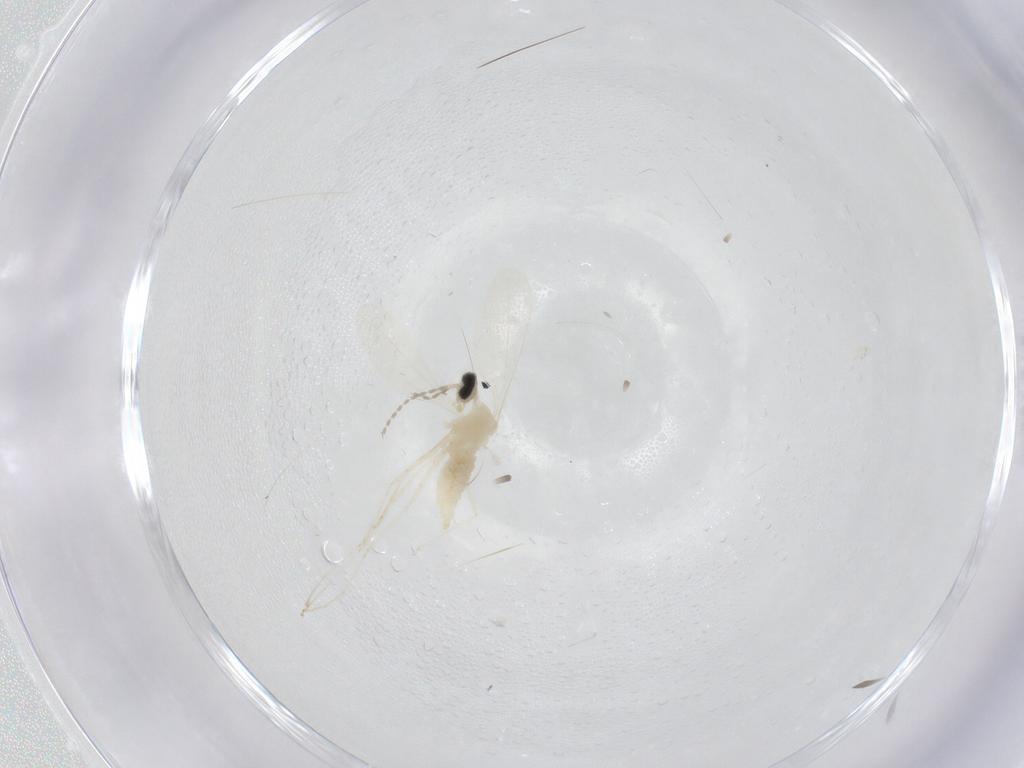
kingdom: Animalia
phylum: Arthropoda
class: Insecta
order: Diptera
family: Cecidomyiidae
